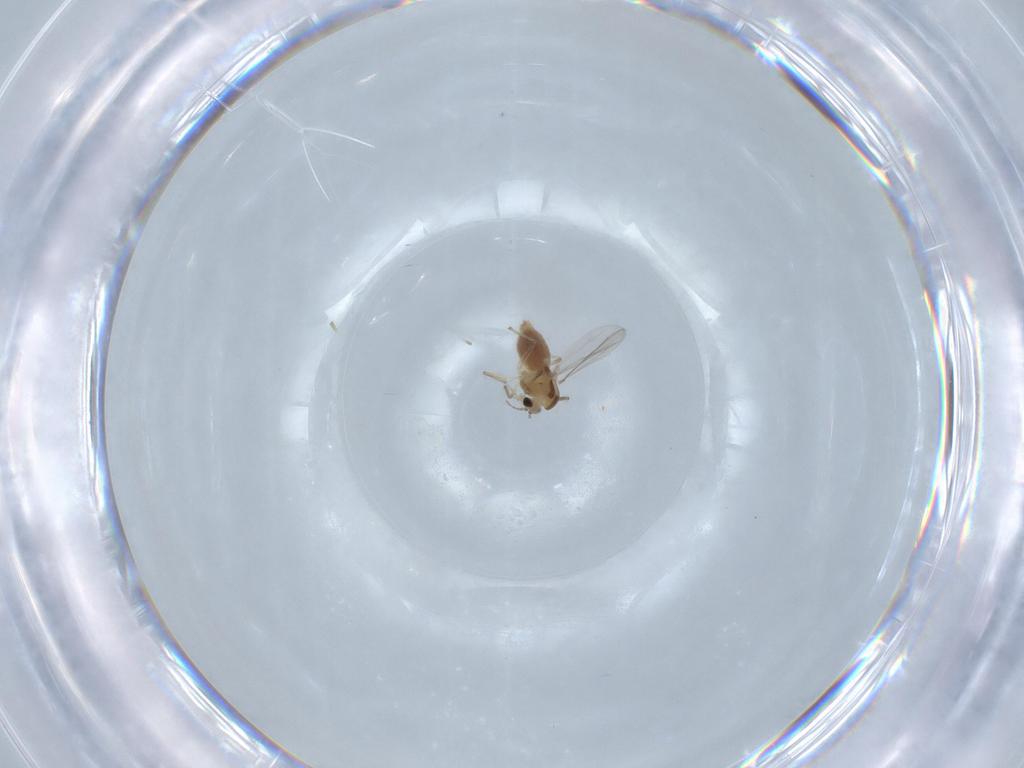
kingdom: Animalia
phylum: Arthropoda
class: Insecta
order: Diptera
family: Chironomidae
